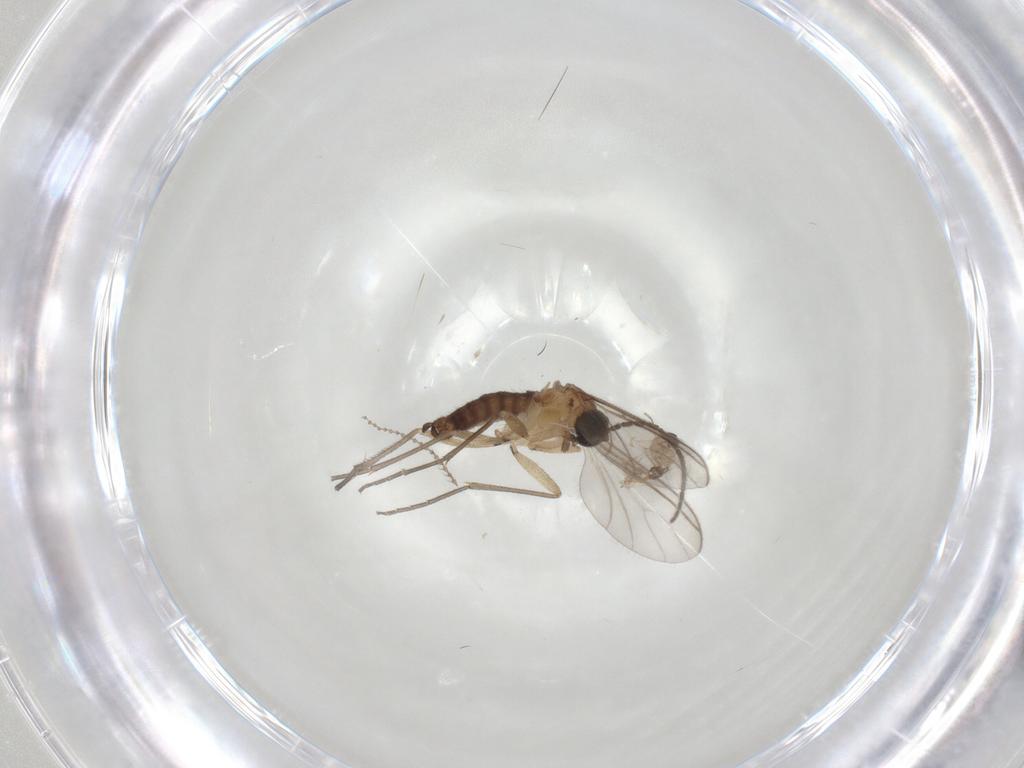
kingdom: Animalia
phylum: Arthropoda
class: Insecta
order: Diptera
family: Sciaridae
